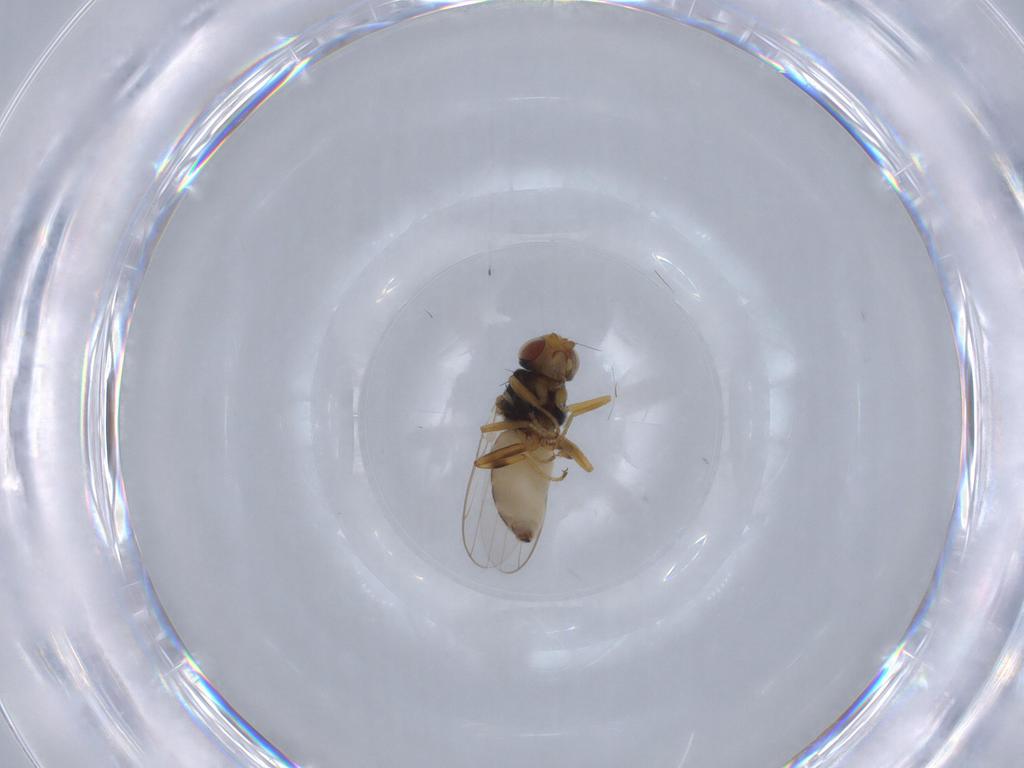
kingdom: Animalia
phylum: Arthropoda
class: Insecta
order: Diptera
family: Chloropidae
